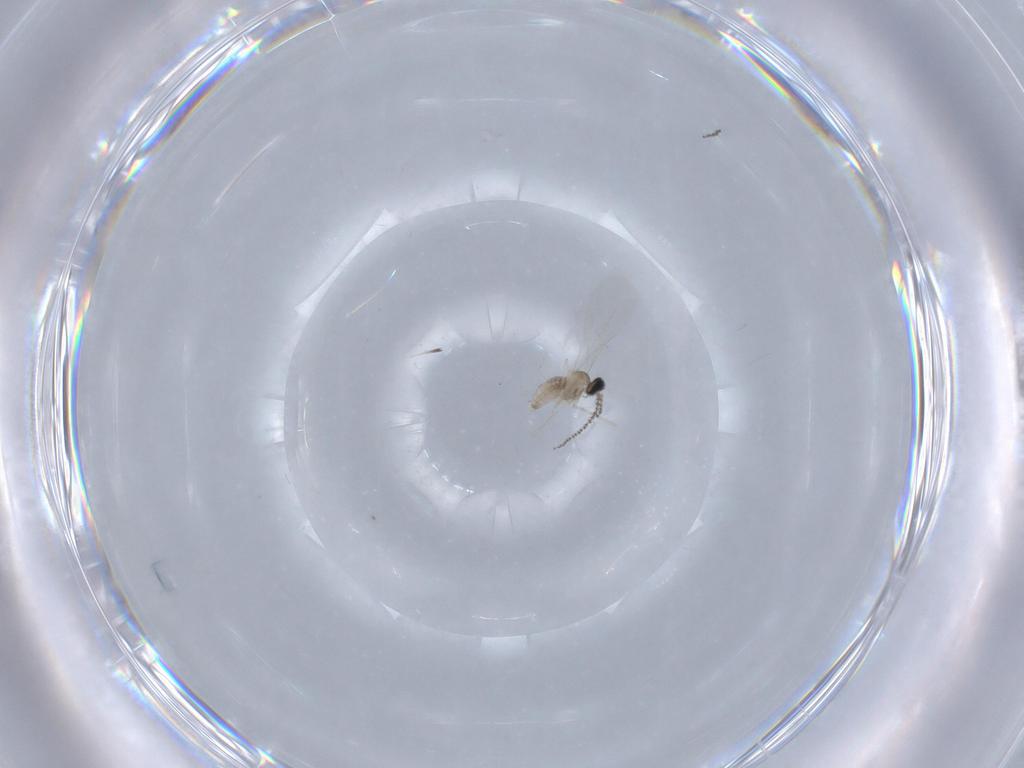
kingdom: Animalia
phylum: Arthropoda
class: Insecta
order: Diptera
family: Cecidomyiidae
